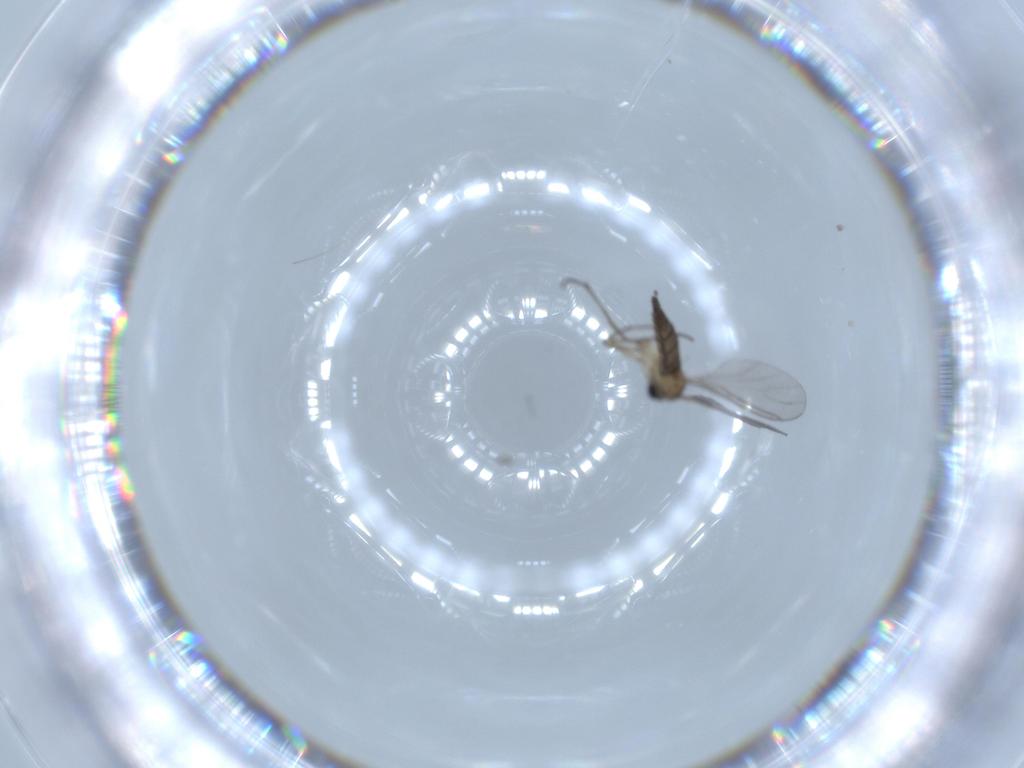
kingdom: Animalia
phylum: Arthropoda
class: Insecta
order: Diptera
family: Sciaridae
